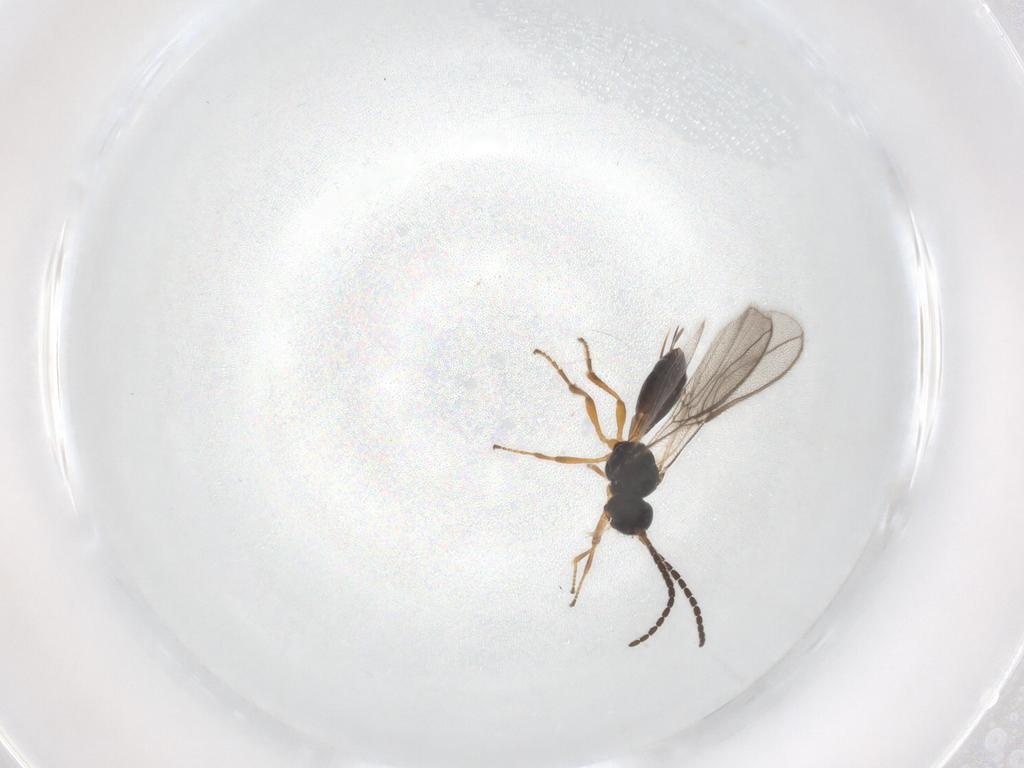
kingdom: Animalia
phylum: Arthropoda
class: Insecta
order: Hymenoptera
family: Braconidae
